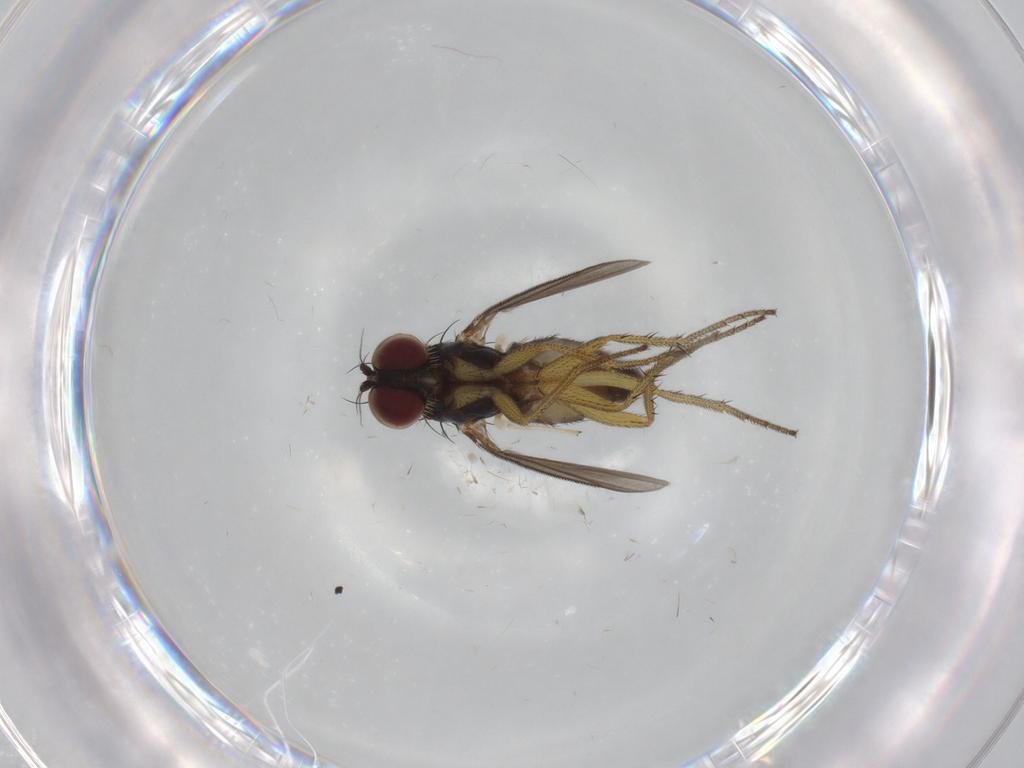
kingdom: Animalia
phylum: Arthropoda
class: Insecta
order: Diptera
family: Dolichopodidae
